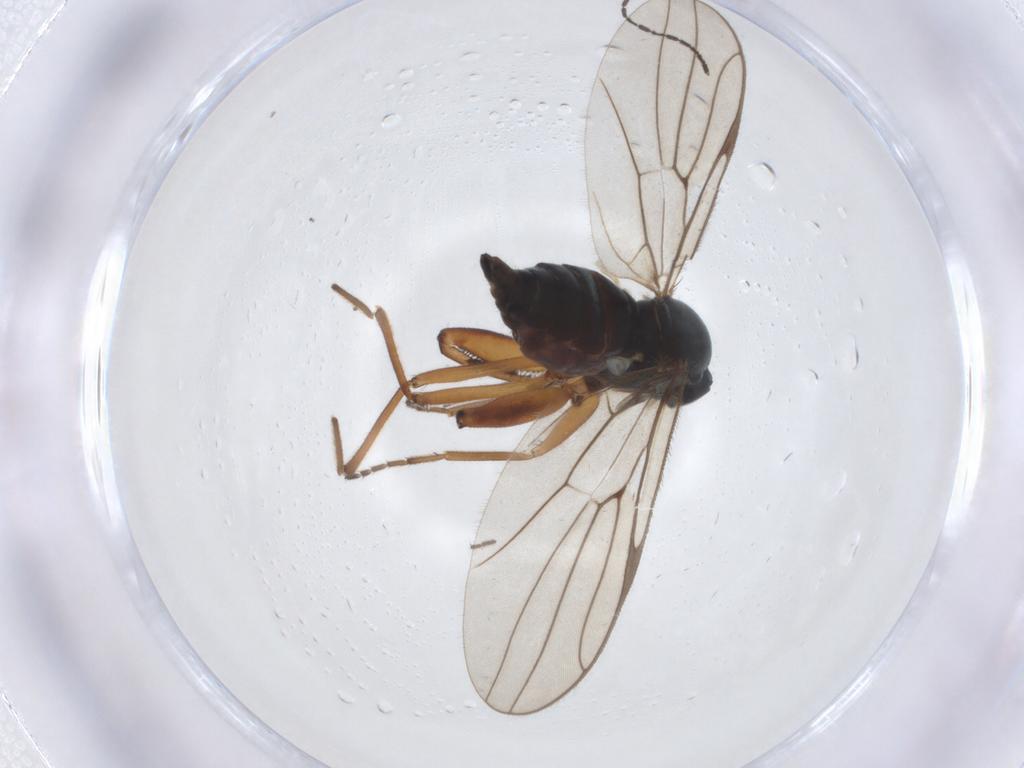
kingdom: Animalia
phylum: Arthropoda
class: Insecta
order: Diptera
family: Hybotidae
